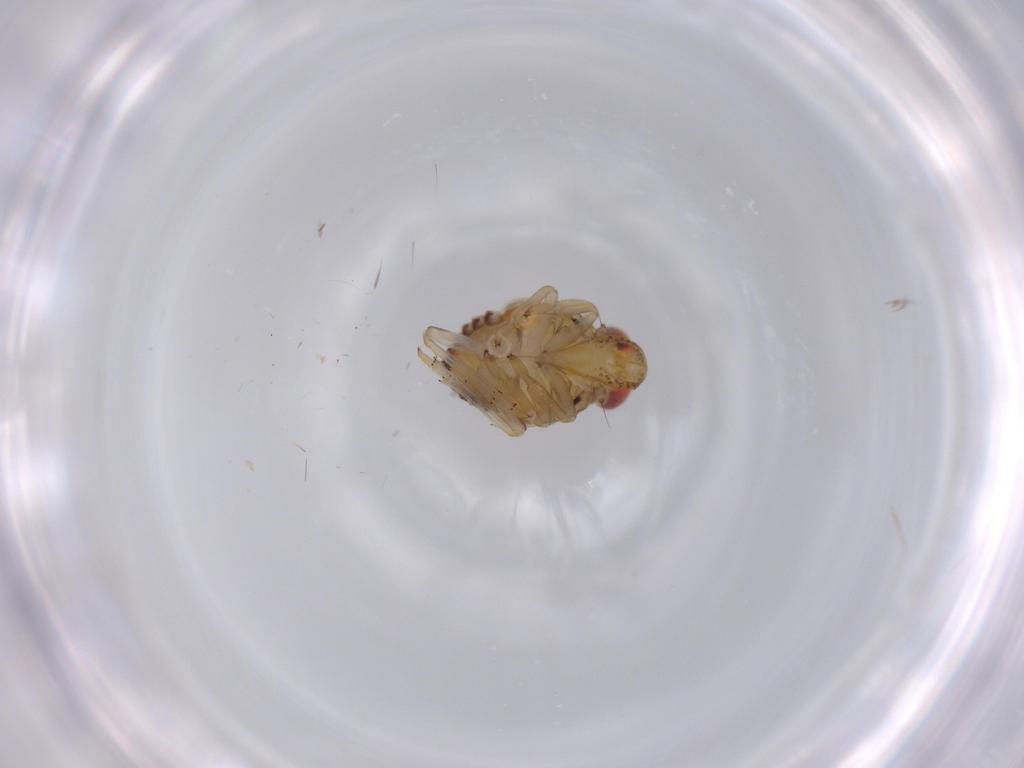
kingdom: Animalia
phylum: Arthropoda
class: Insecta
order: Hemiptera
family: Issidae
